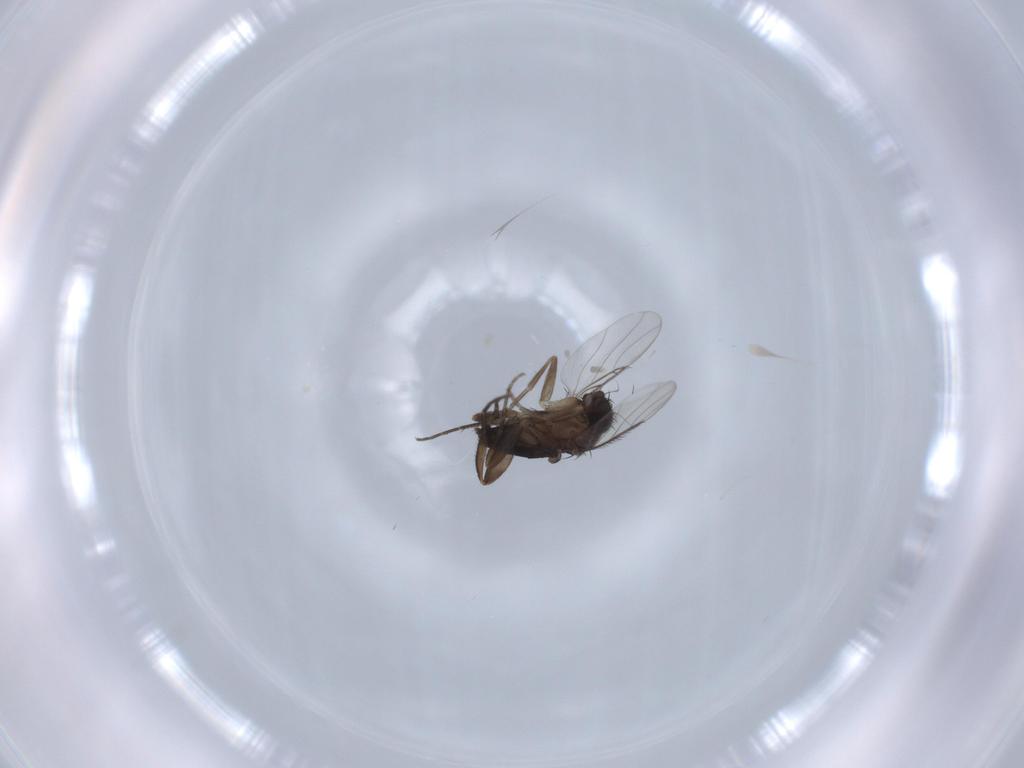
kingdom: Animalia
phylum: Arthropoda
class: Insecta
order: Diptera
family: Phoridae
